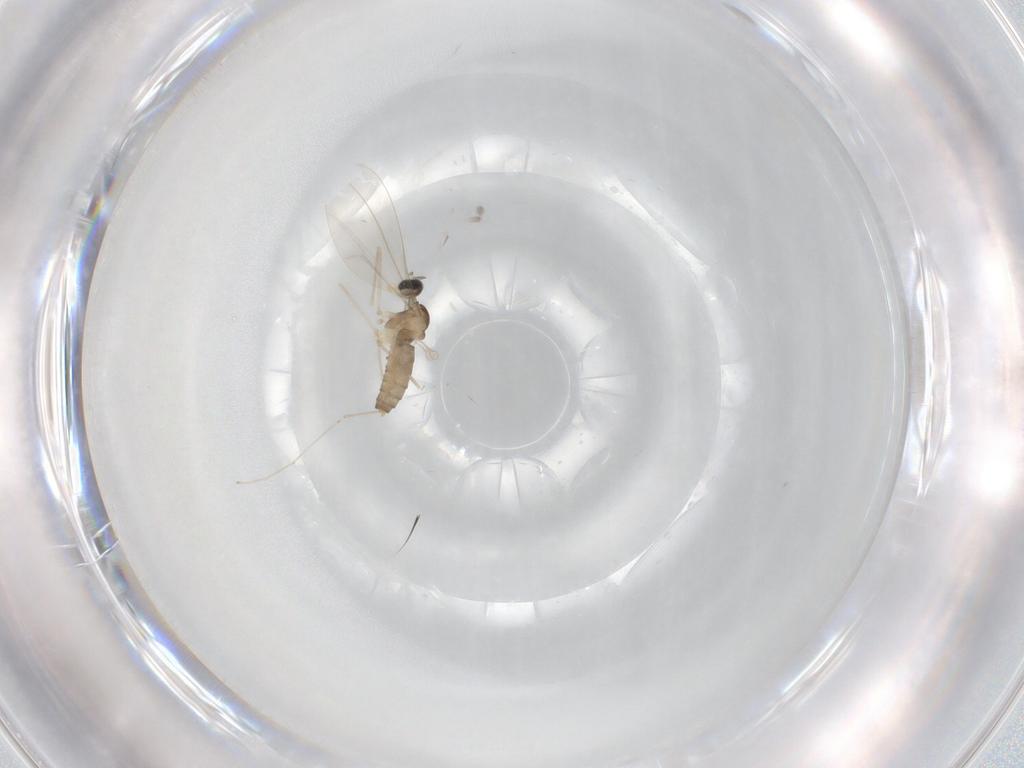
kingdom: Animalia
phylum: Arthropoda
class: Insecta
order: Diptera
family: Cecidomyiidae
